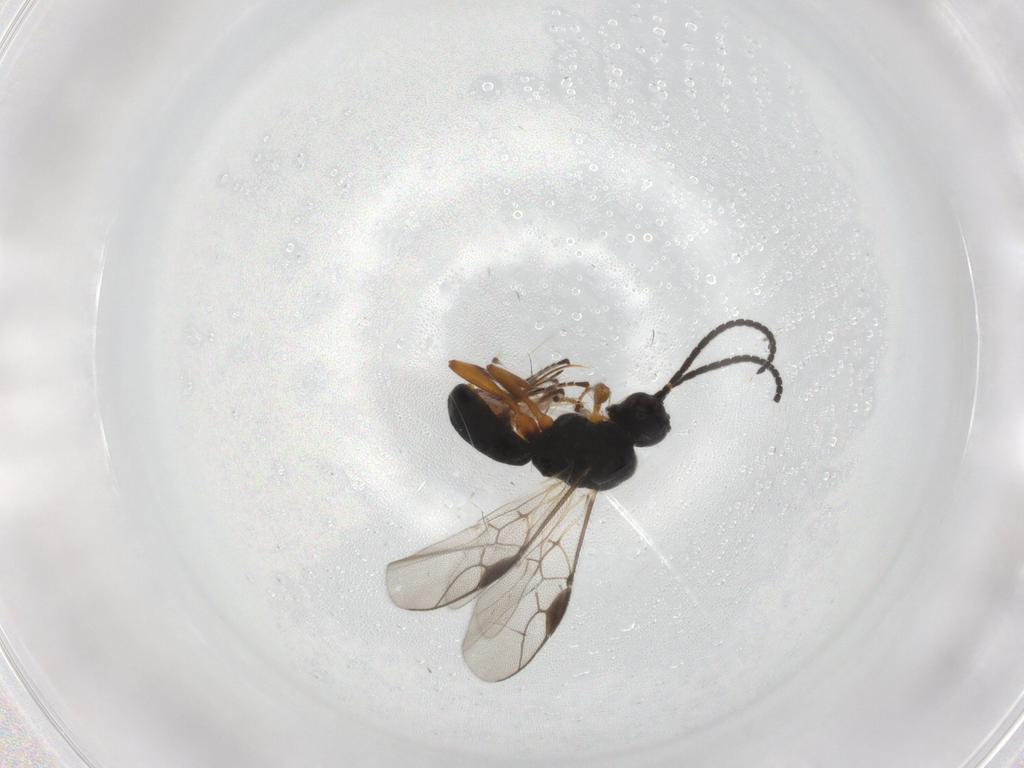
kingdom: Animalia
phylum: Arthropoda
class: Insecta
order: Hymenoptera
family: Braconidae
